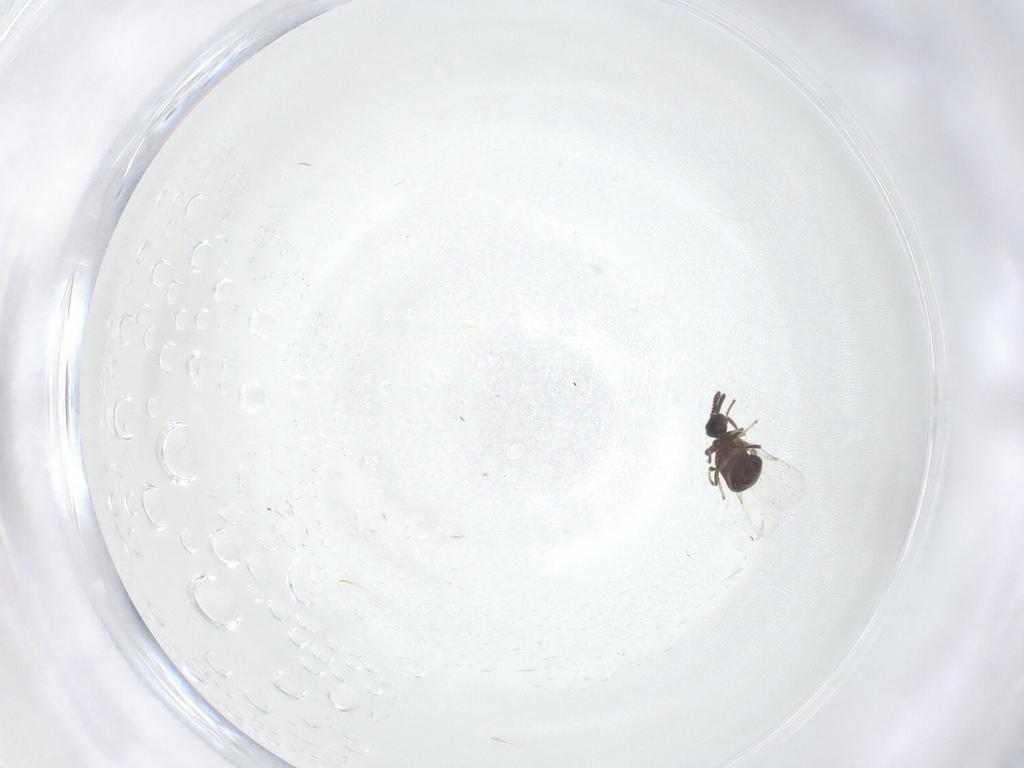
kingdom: Animalia
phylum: Arthropoda
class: Insecta
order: Diptera
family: Scatopsidae
